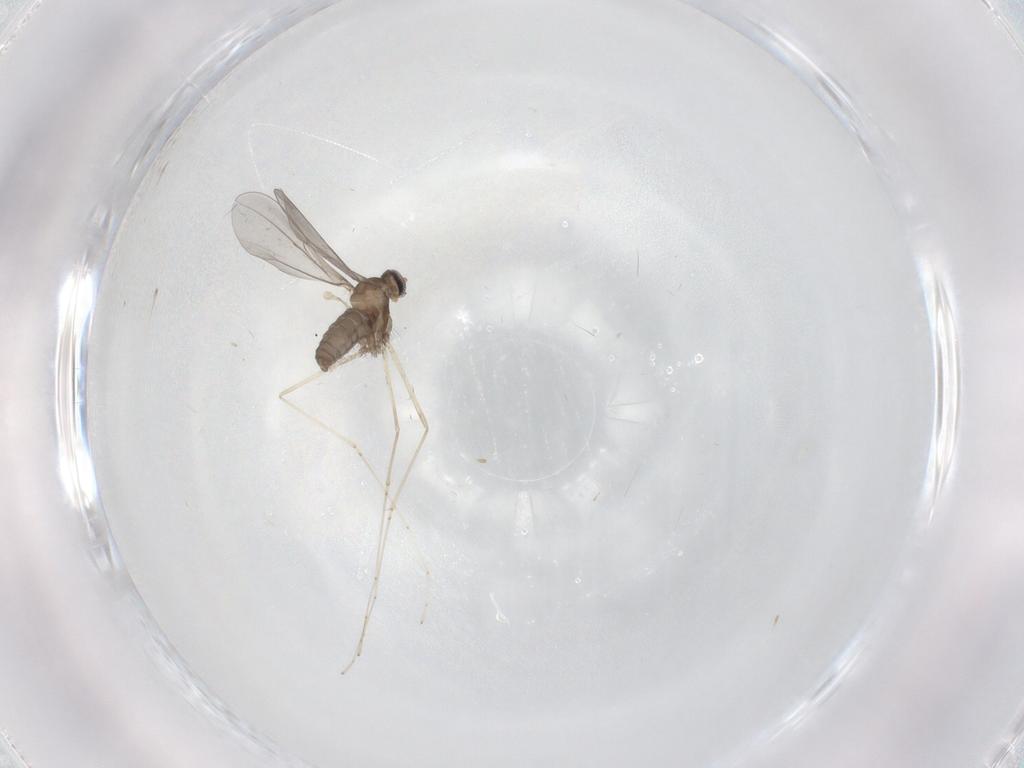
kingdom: Animalia
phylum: Arthropoda
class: Insecta
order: Diptera
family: Cecidomyiidae
